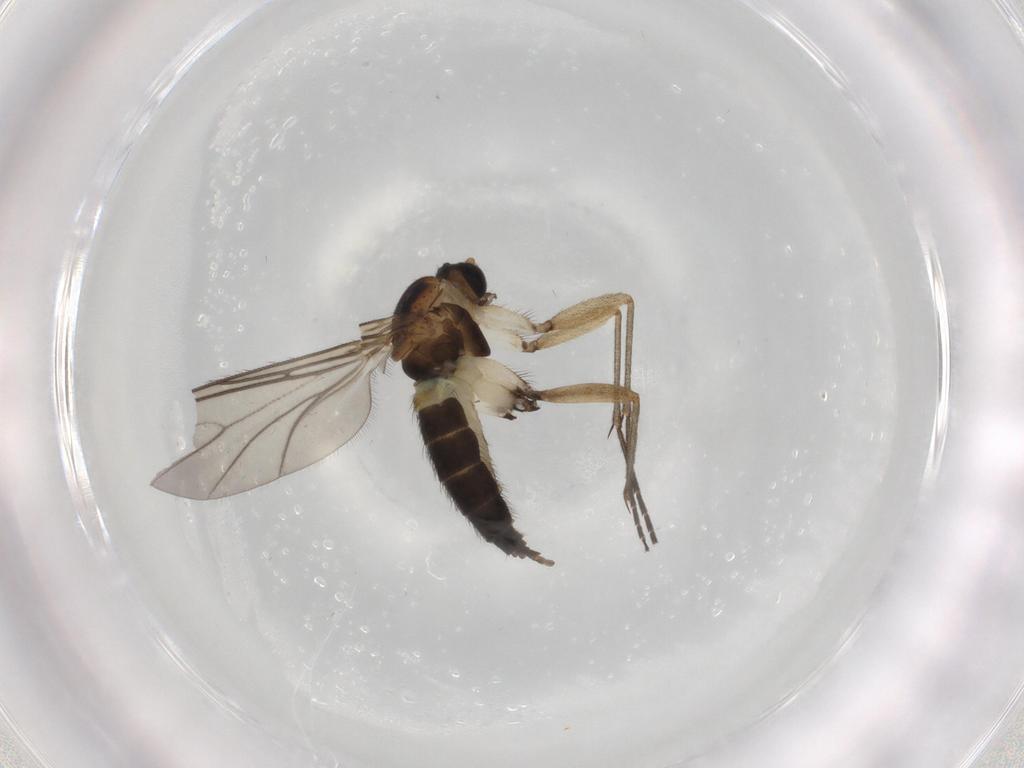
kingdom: Animalia
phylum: Arthropoda
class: Insecta
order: Diptera
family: Sciaridae
